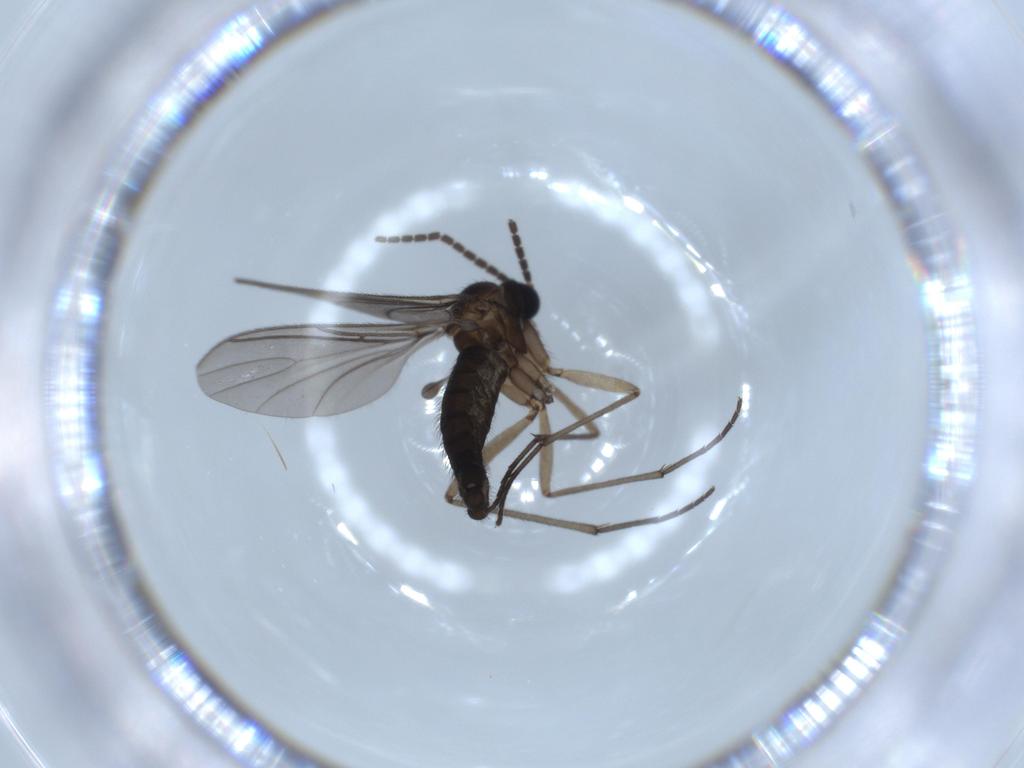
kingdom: Animalia
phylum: Arthropoda
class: Insecta
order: Diptera
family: Sciaridae
